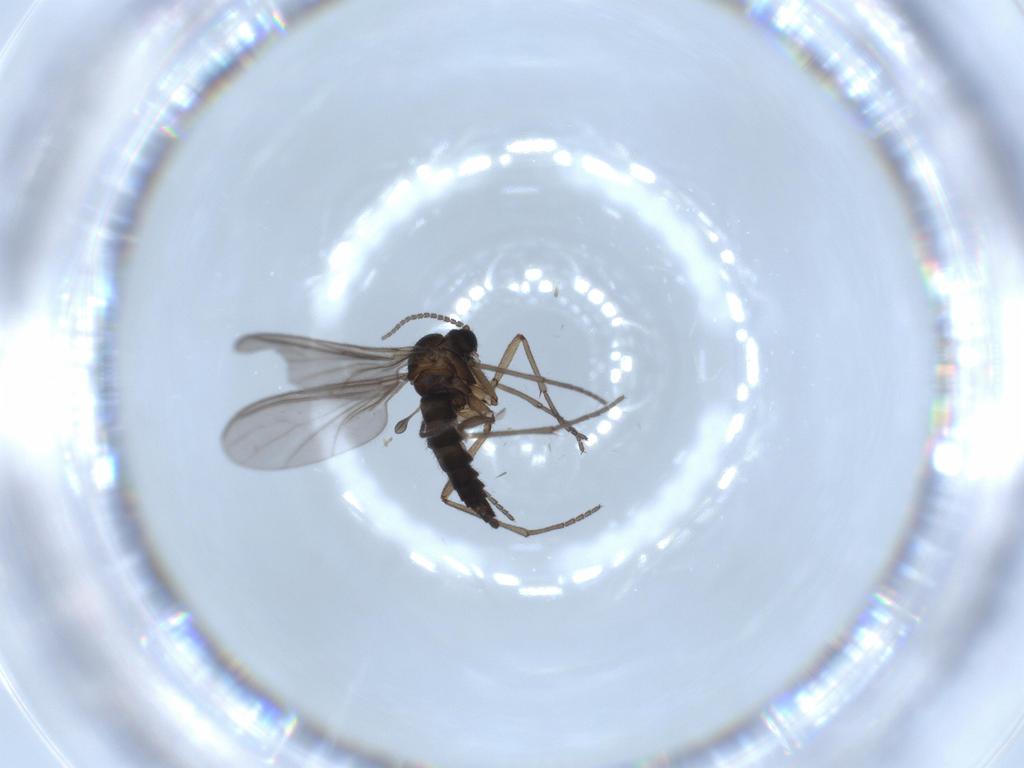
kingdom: Animalia
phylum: Arthropoda
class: Insecta
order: Diptera
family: Sciaridae
